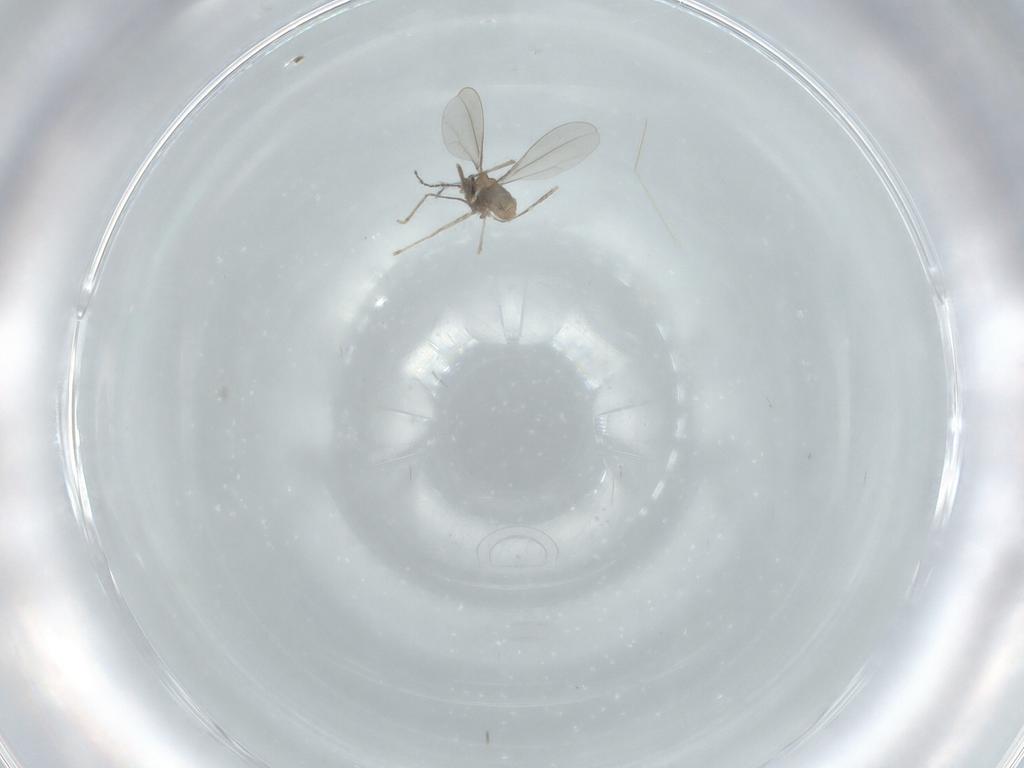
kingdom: Animalia
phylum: Arthropoda
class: Insecta
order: Diptera
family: Cecidomyiidae
